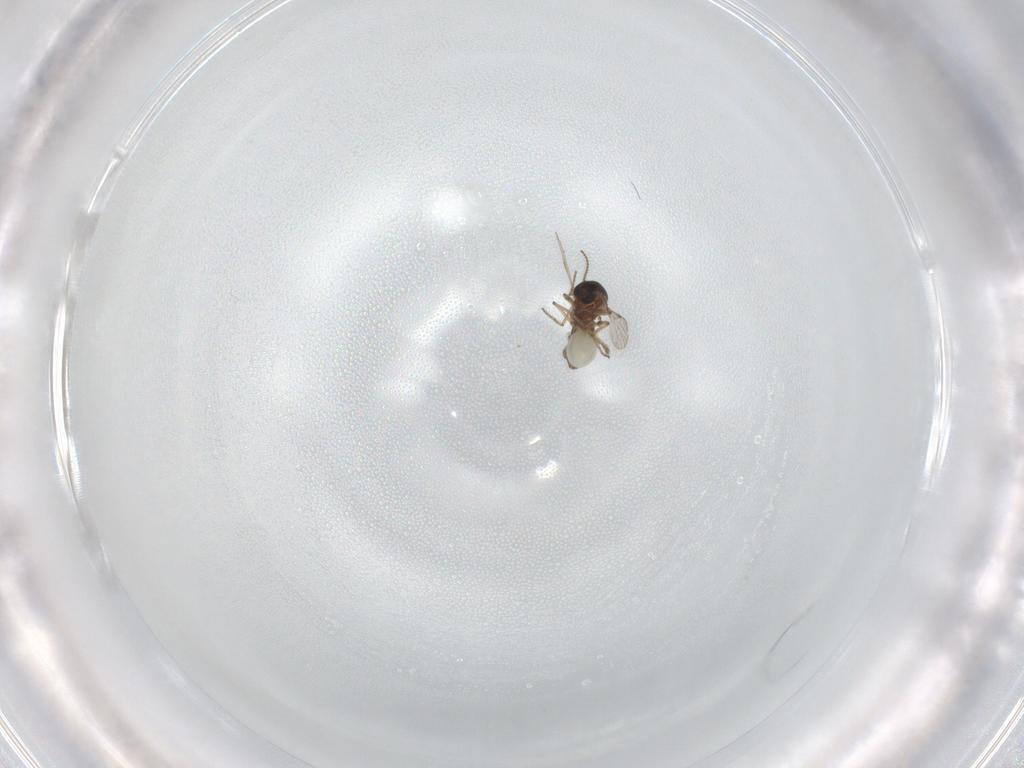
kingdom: Animalia
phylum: Arthropoda
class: Insecta
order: Diptera
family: Ceratopogonidae
